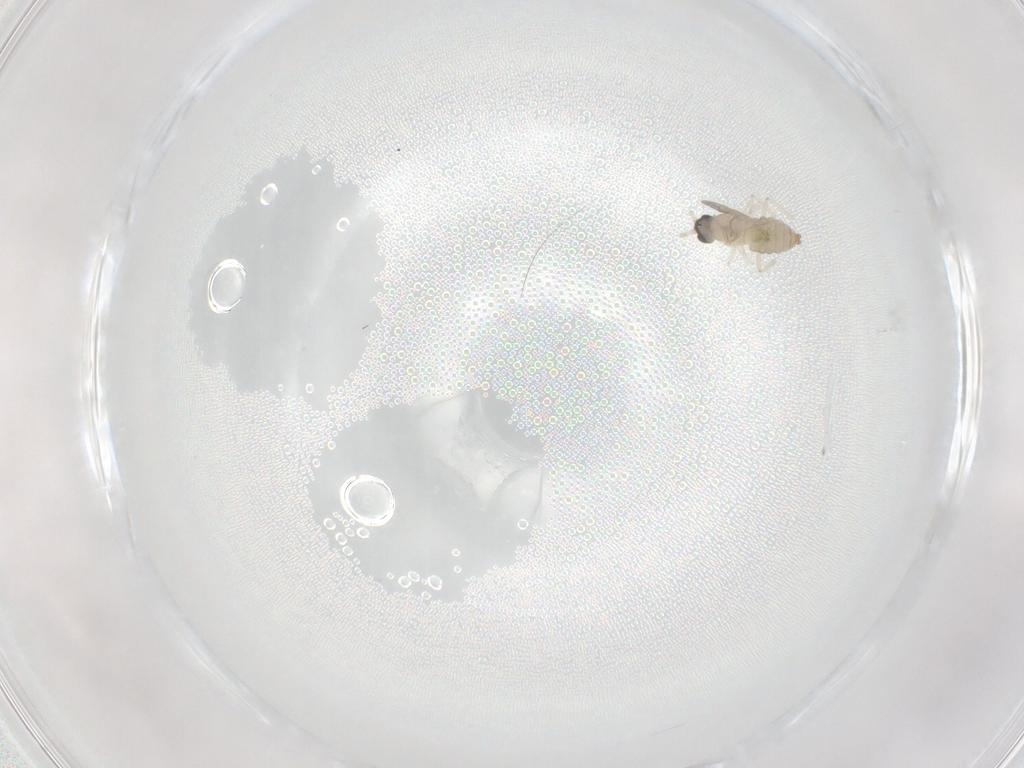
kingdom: Animalia
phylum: Arthropoda
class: Insecta
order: Diptera
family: Cecidomyiidae
